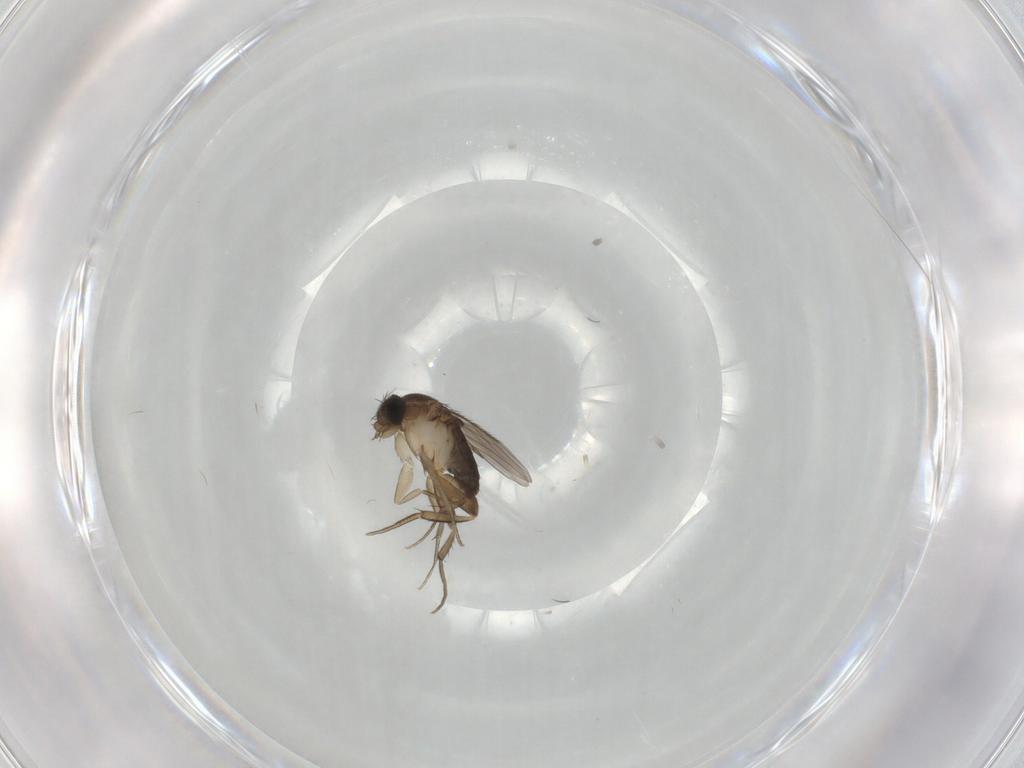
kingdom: Animalia
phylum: Arthropoda
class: Insecta
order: Diptera
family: Phoridae
